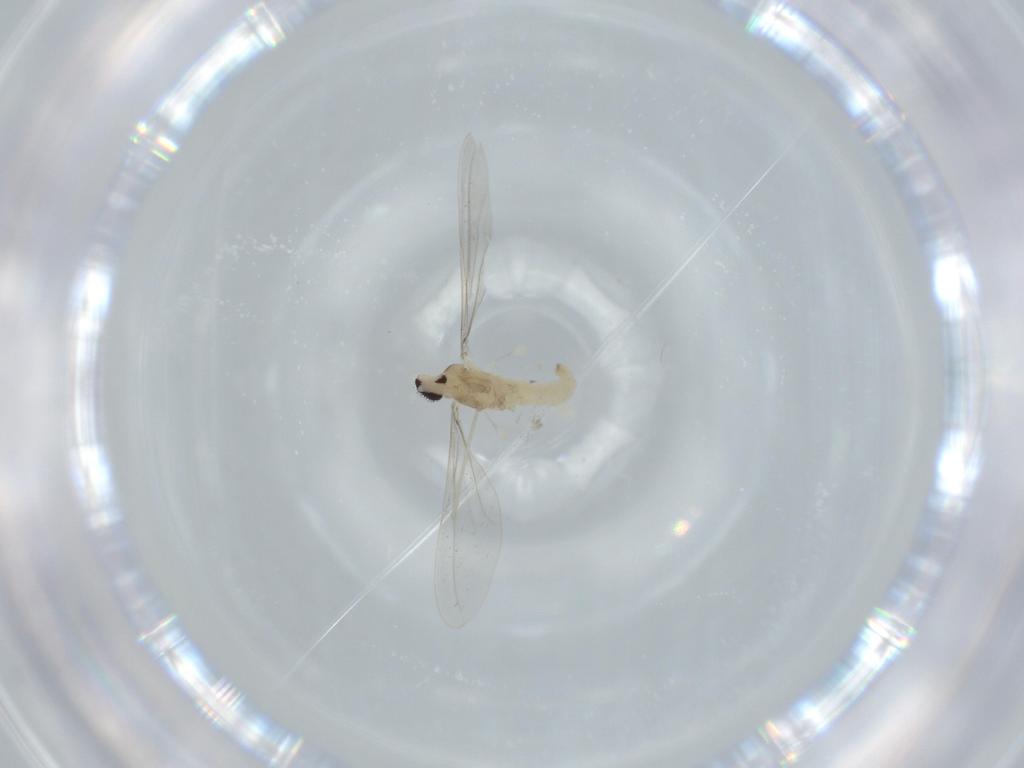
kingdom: Animalia
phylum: Arthropoda
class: Insecta
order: Diptera
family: Cecidomyiidae
